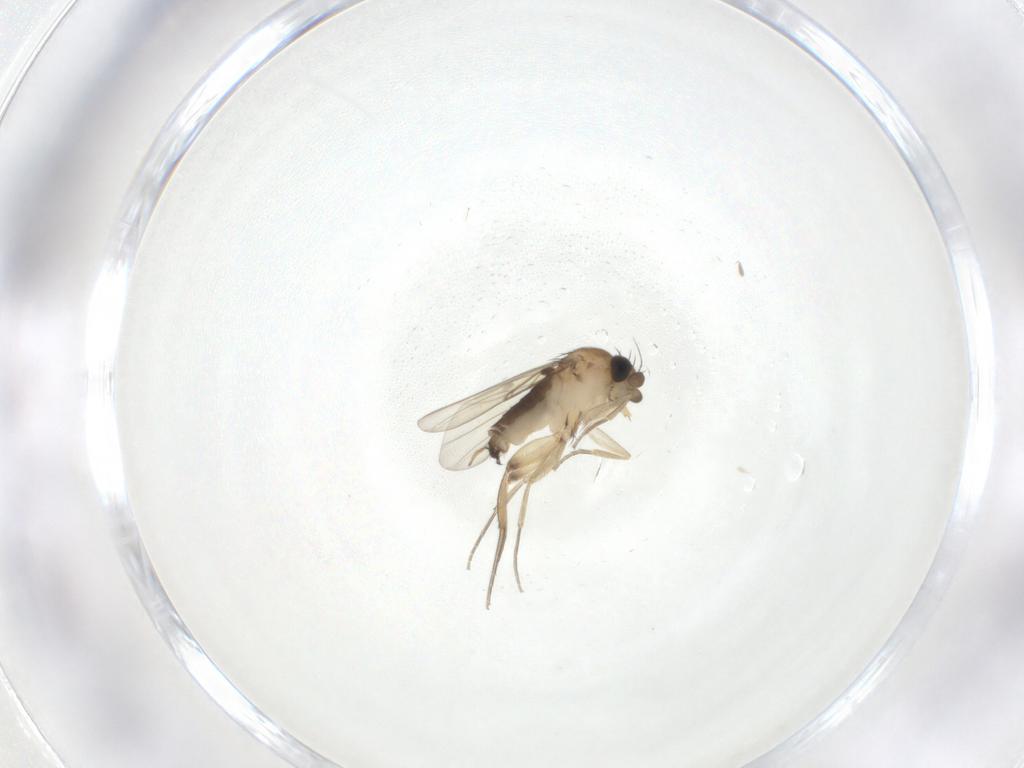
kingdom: Animalia
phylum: Arthropoda
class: Insecta
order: Diptera
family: Phoridae
